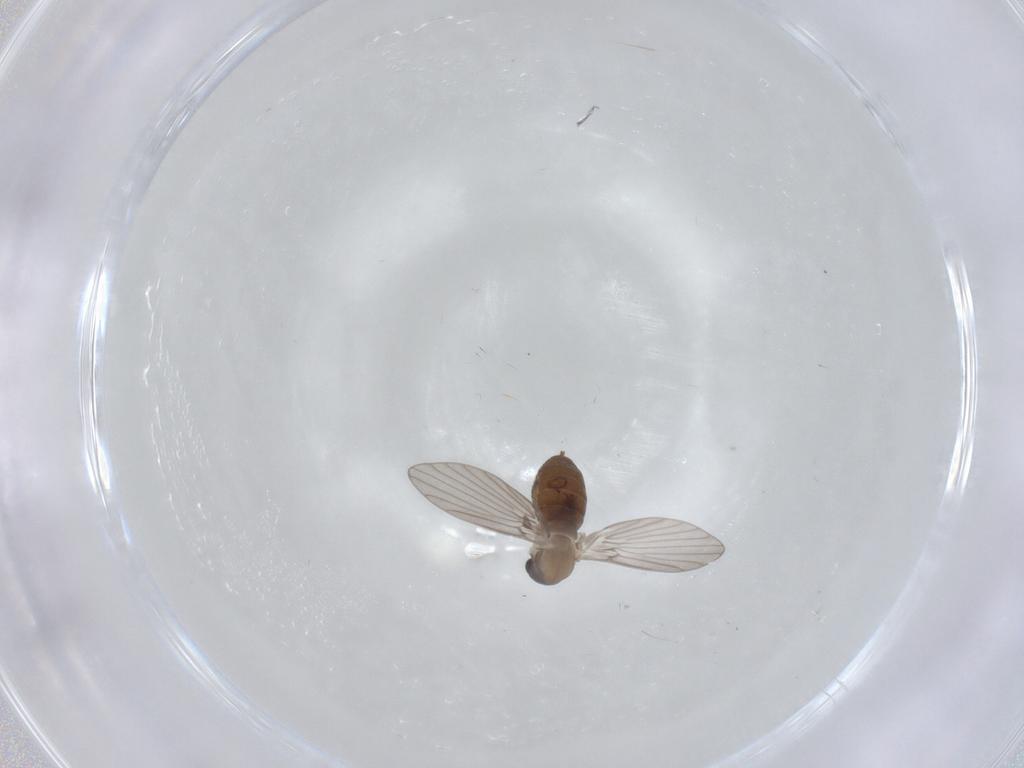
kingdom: Animalia
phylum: Arthropoda
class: Insecta
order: Diptera
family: Psychodidae
